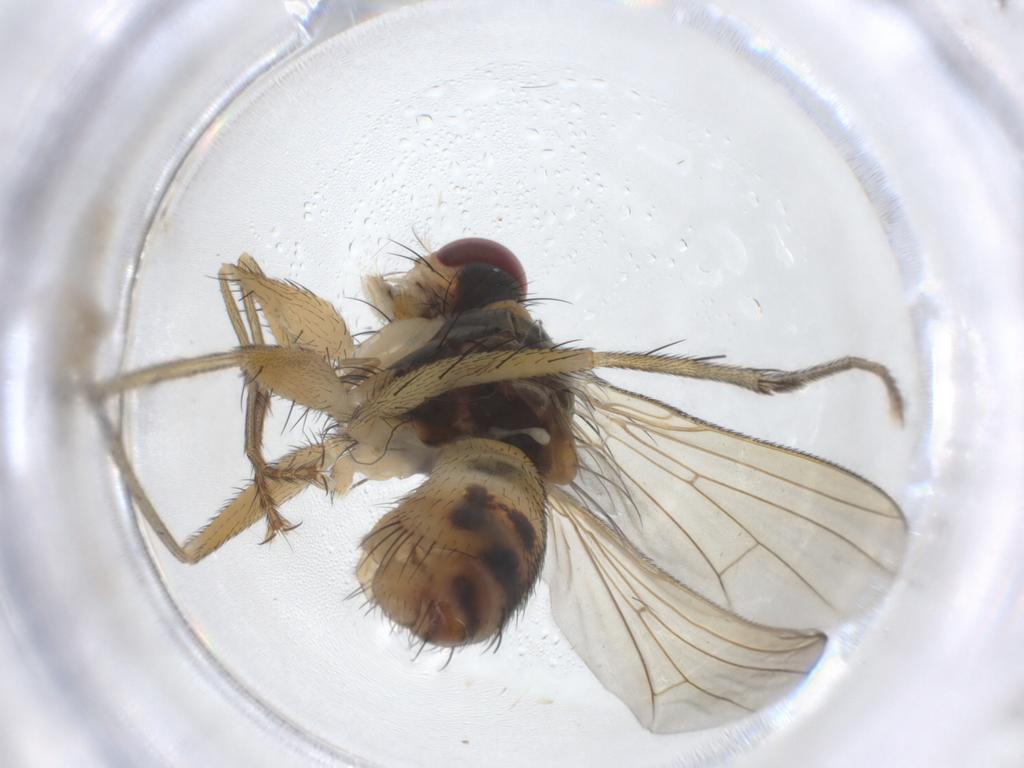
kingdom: Animalia
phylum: Arthropoda
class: Insecta
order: Diptera
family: Muscidae
